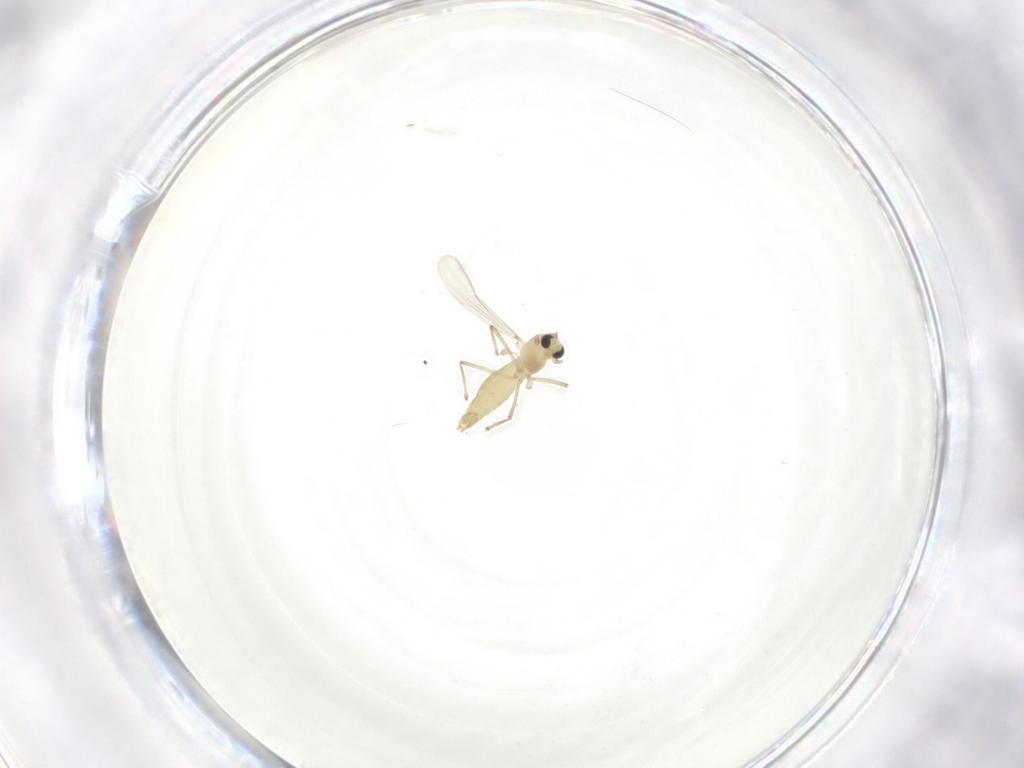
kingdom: Animalia
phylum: Arthropoda
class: Insecta
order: Diptera
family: Chironomidae
